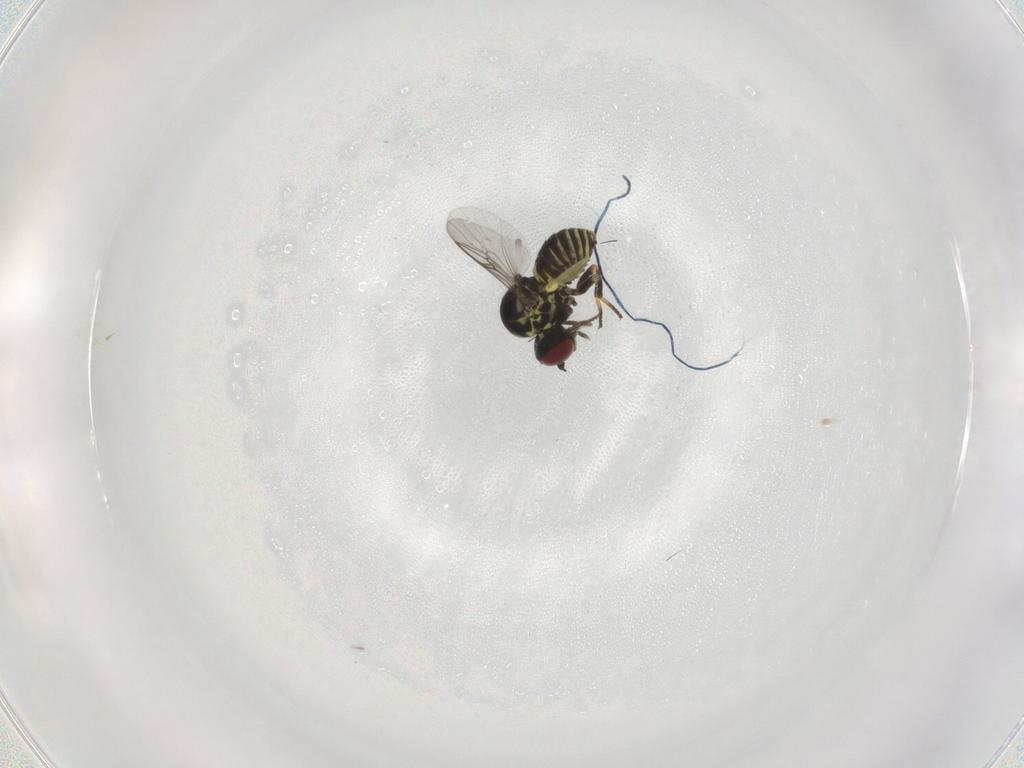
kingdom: Animalia
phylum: Arthropoda
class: Insecta
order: Diptera
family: Bombyliidae
